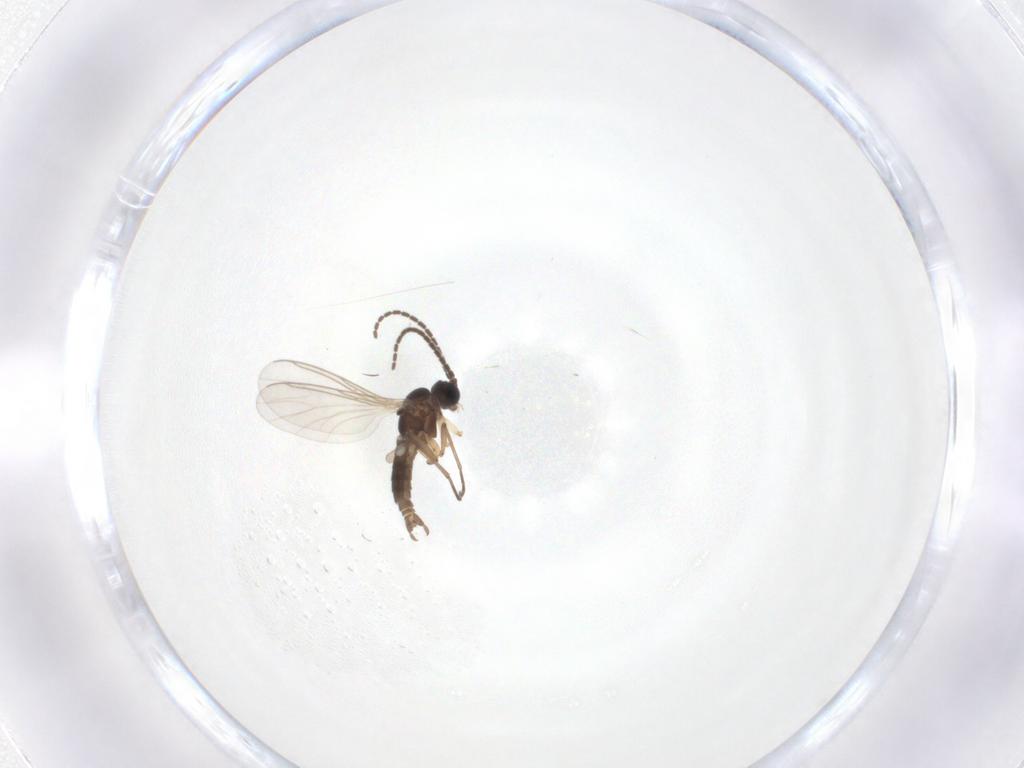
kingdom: Animalia
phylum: Arthropoda
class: Insecta
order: Diptera
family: Sciaridae
